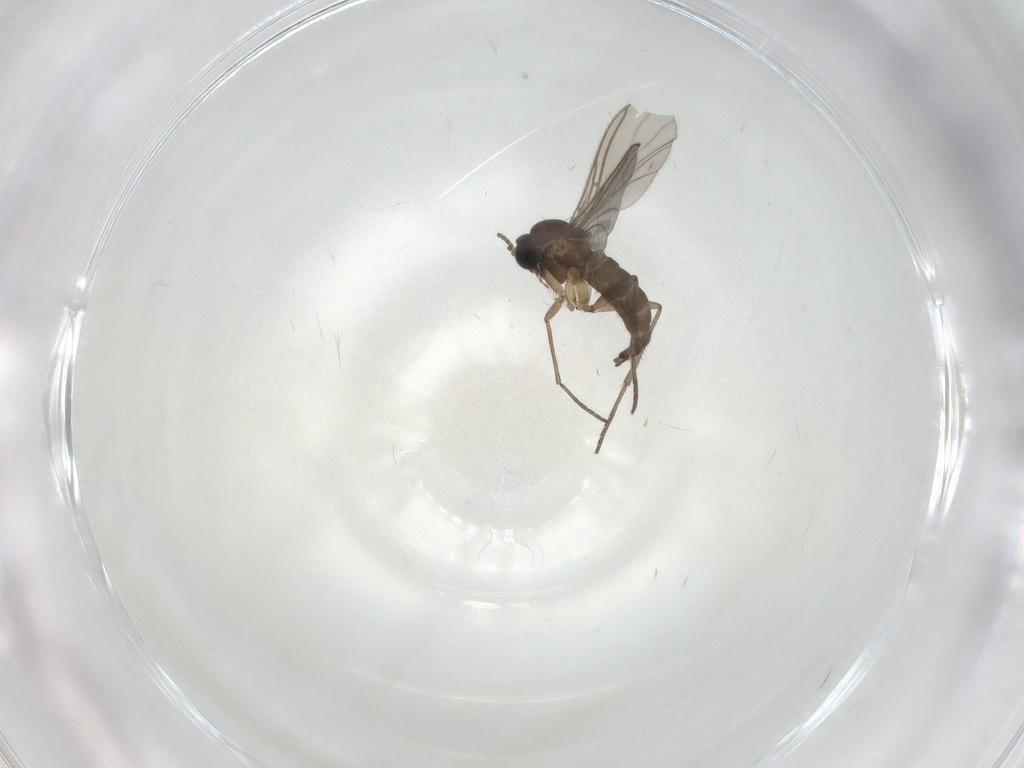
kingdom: Animalia
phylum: Arthropoda
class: Insecta
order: Diptera
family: Sciaridae
